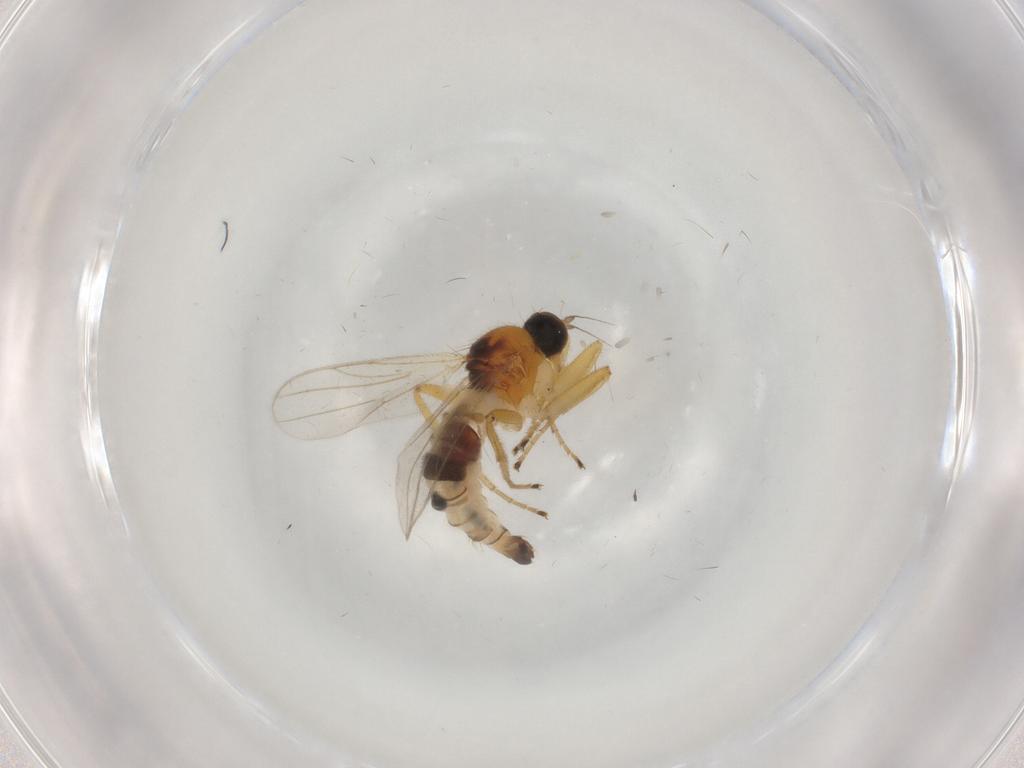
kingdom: Animalia
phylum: Arthropoda
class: Insecta
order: Diptera
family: Hybotidae
